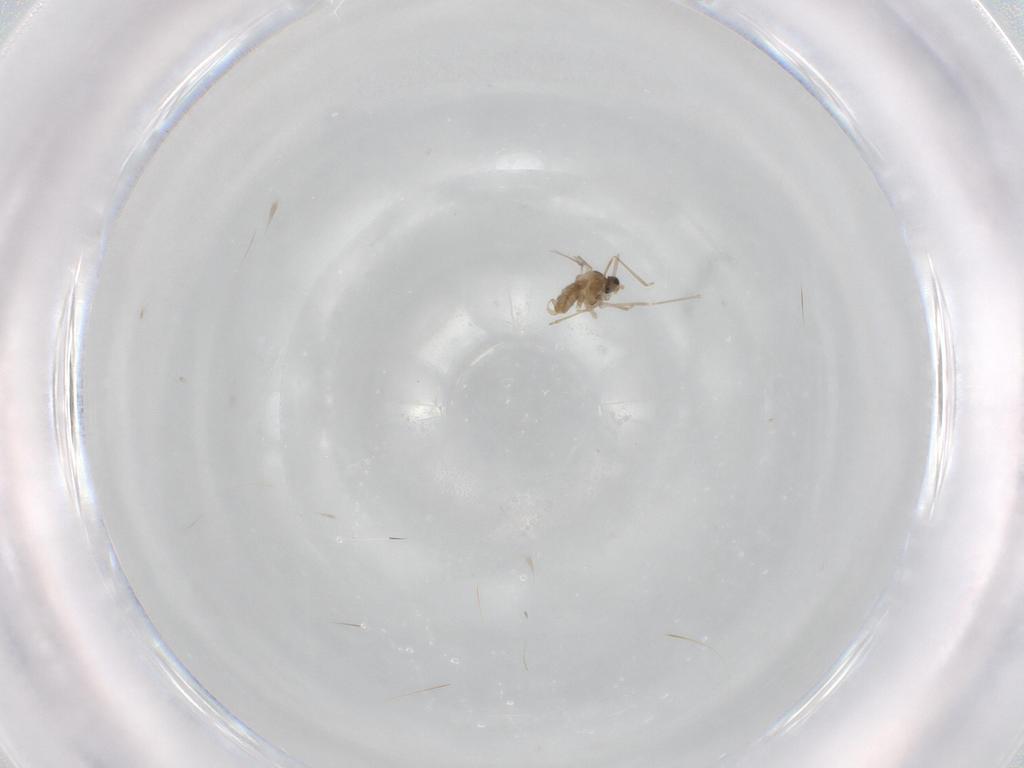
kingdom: Animalia
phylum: Arthropoda
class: Insecta
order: Diptera
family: Limoniidae
